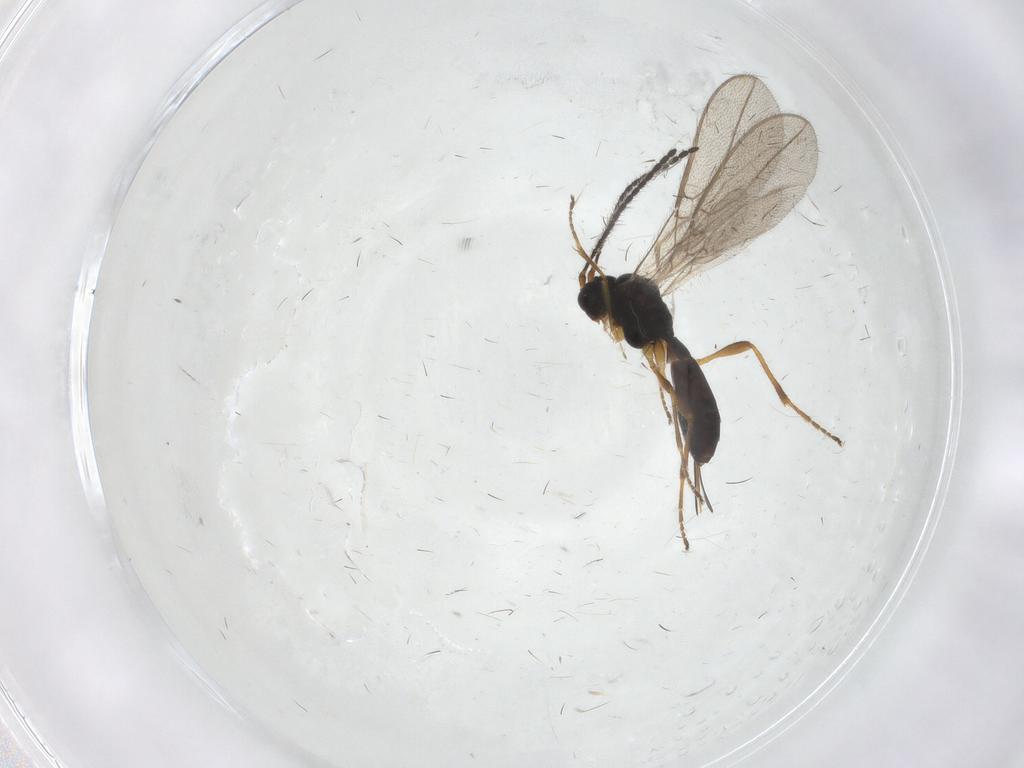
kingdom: Animalia
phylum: Arthropoda
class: Insecta
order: Hymenoptera
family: Braconidae
